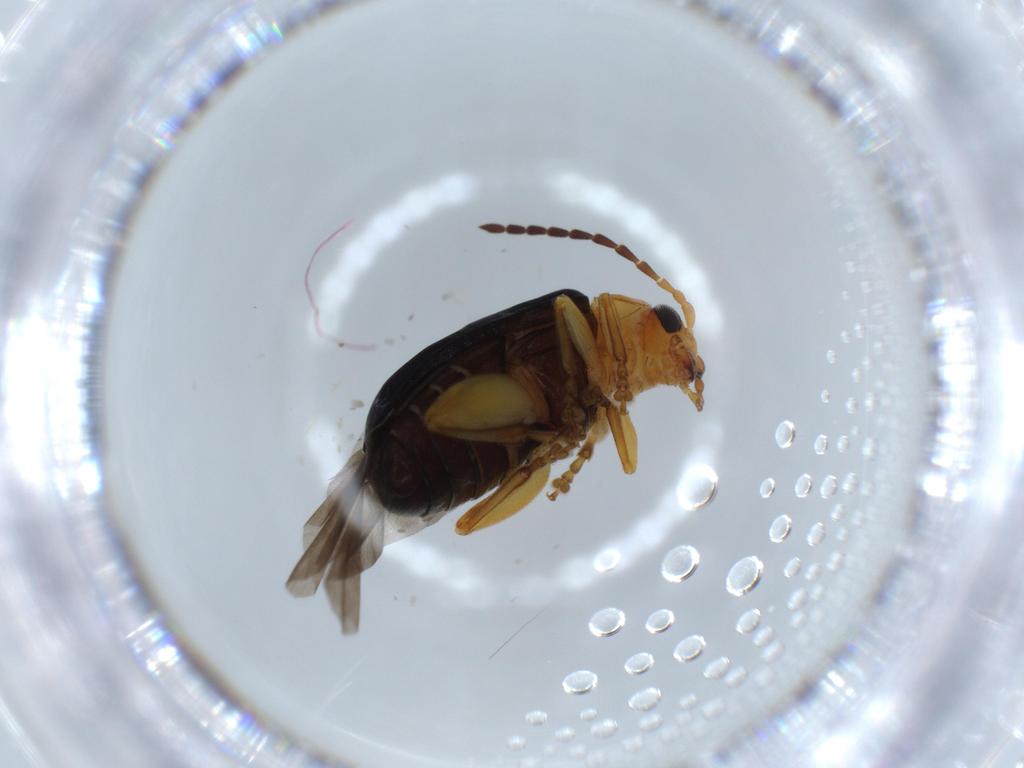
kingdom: Animalia
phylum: Arthropoda
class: Insecta
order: Coleoptera
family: Chrysomelidae
